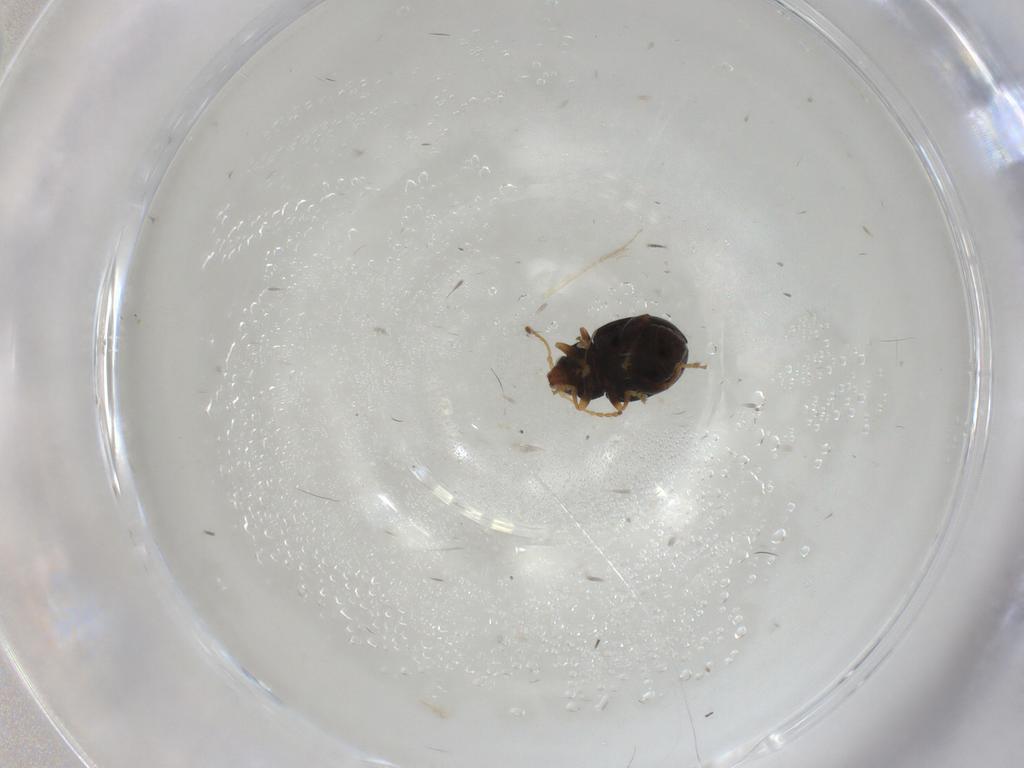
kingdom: Animalia
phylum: Arthropoda
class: Insecta
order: Coleoptera
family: Chrysomelidae
